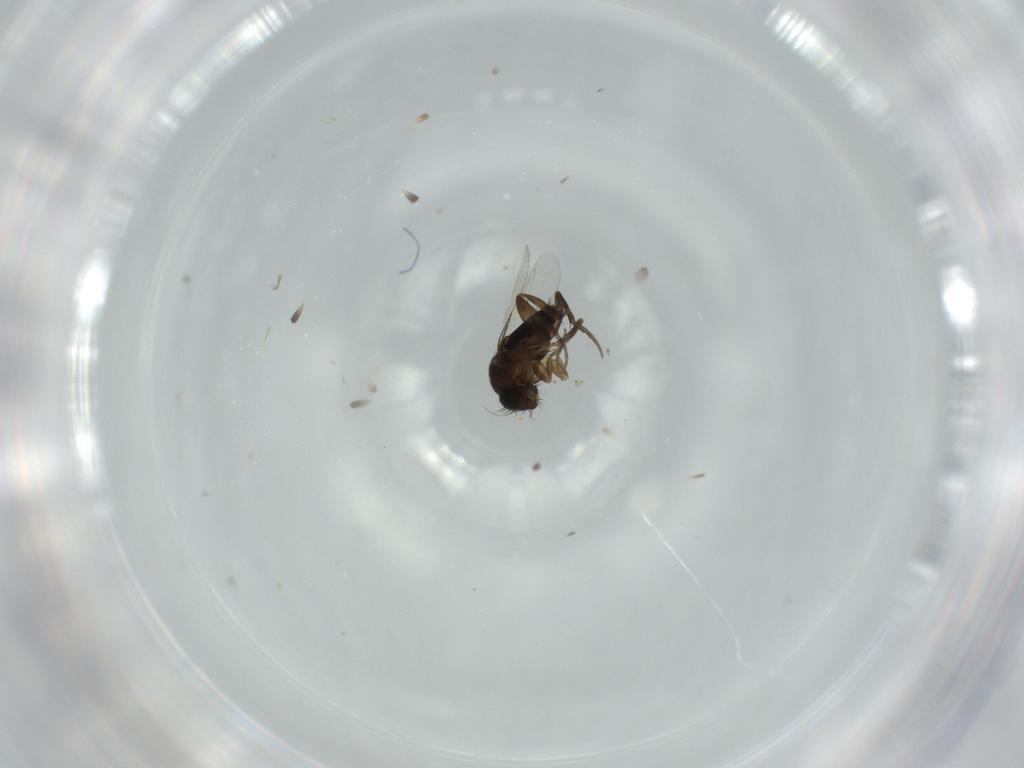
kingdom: Animalia
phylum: Arthropoda
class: Insecta
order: Diptera
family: Phoridae
